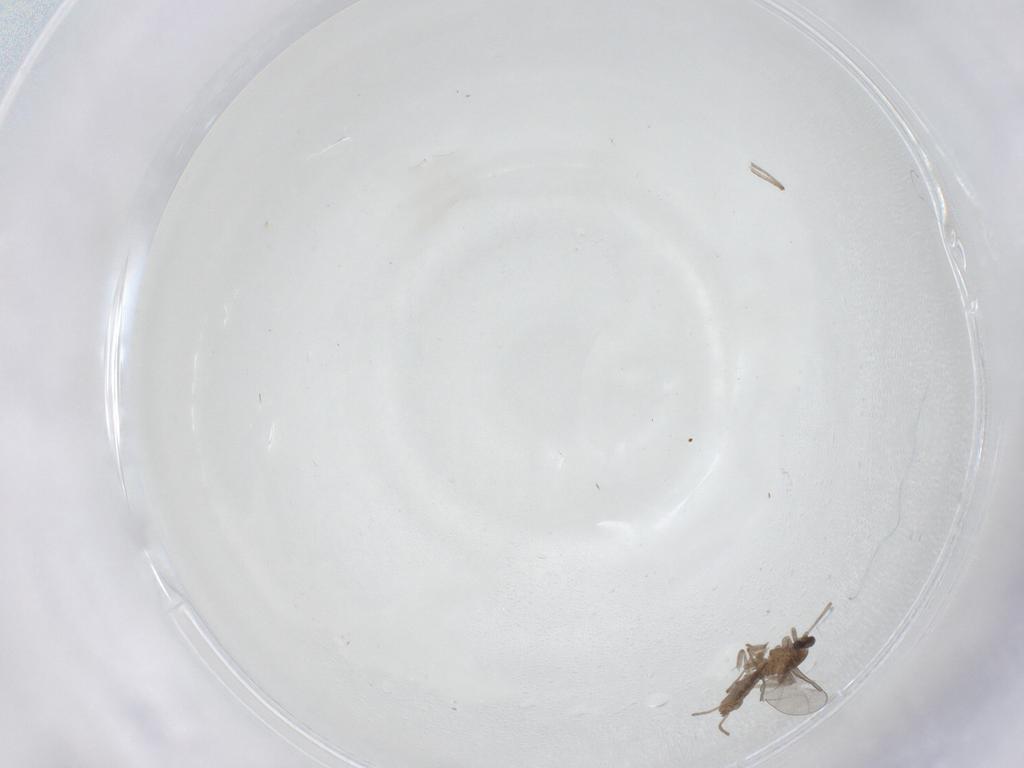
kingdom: Animalia
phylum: Arthropoda
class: Insecta
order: Diptera
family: Cecidomyiidae
